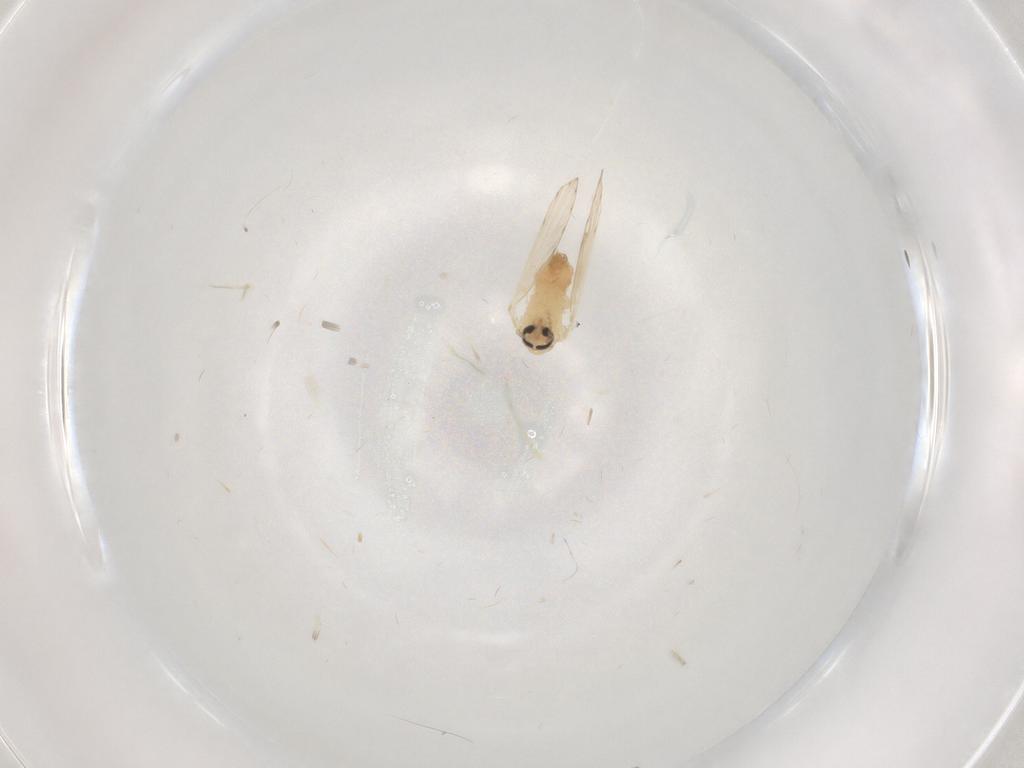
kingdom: Animalia
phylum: Arthropoda
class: Insecta
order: Diptera
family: Psychodidae
